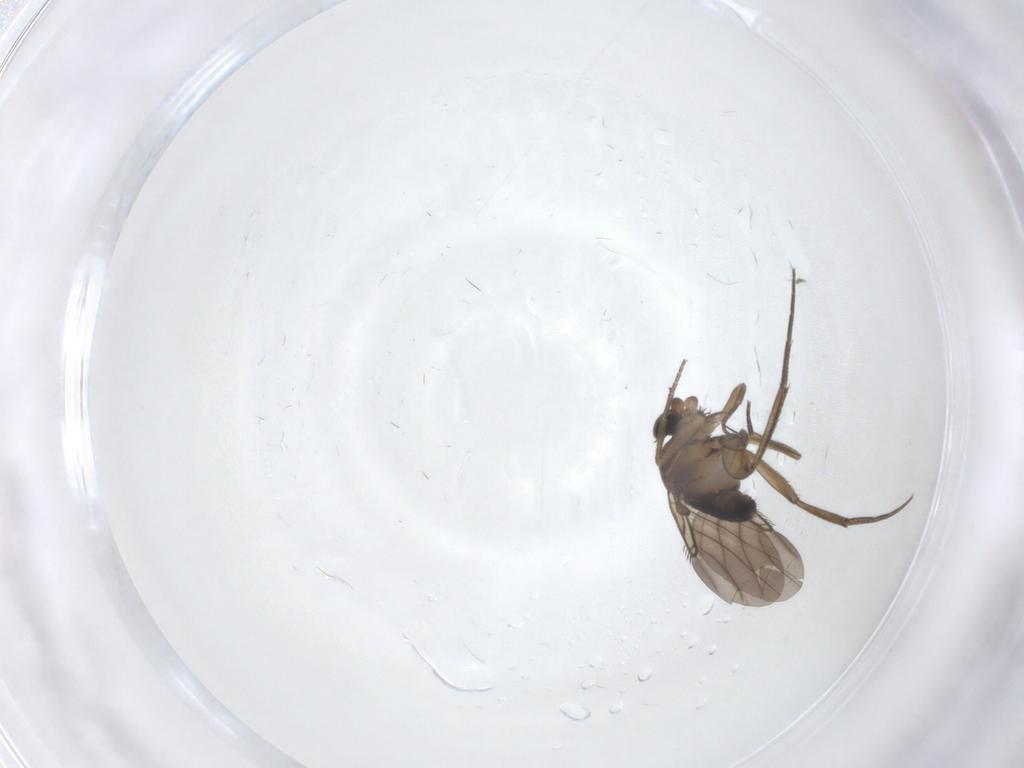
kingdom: Animalia
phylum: Arthropoda
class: Insecta
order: Diptera
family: Phoridae
